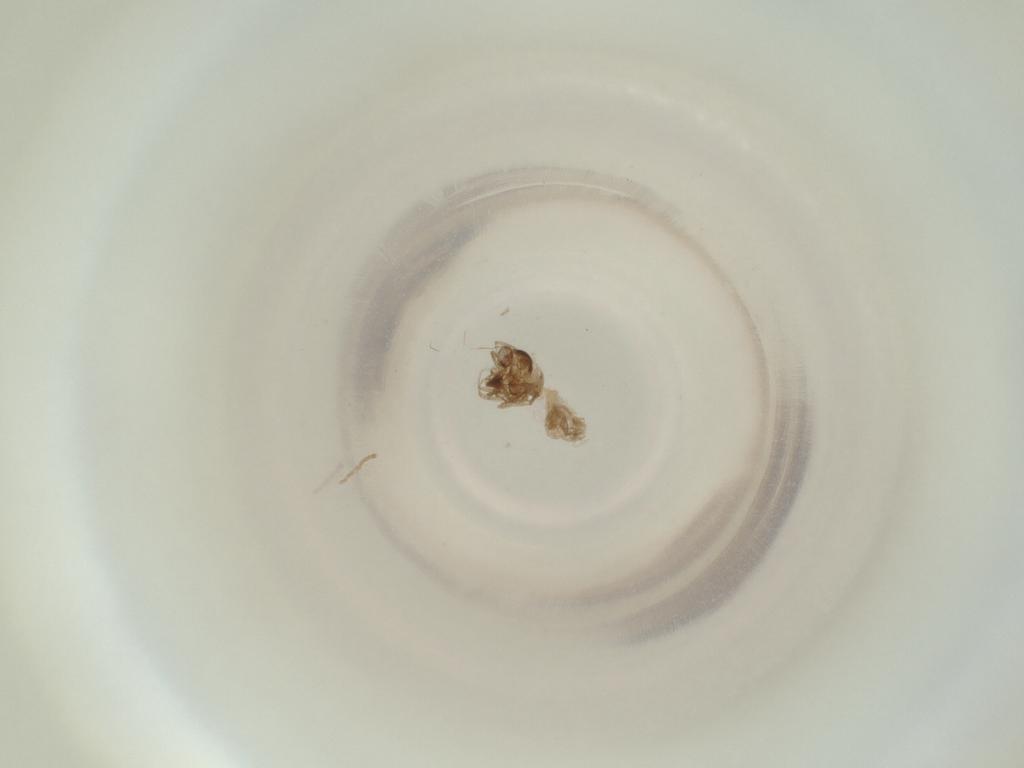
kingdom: Animalia
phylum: Arthropoda
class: Insecta
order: Diptera
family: Cecidomyiidae
